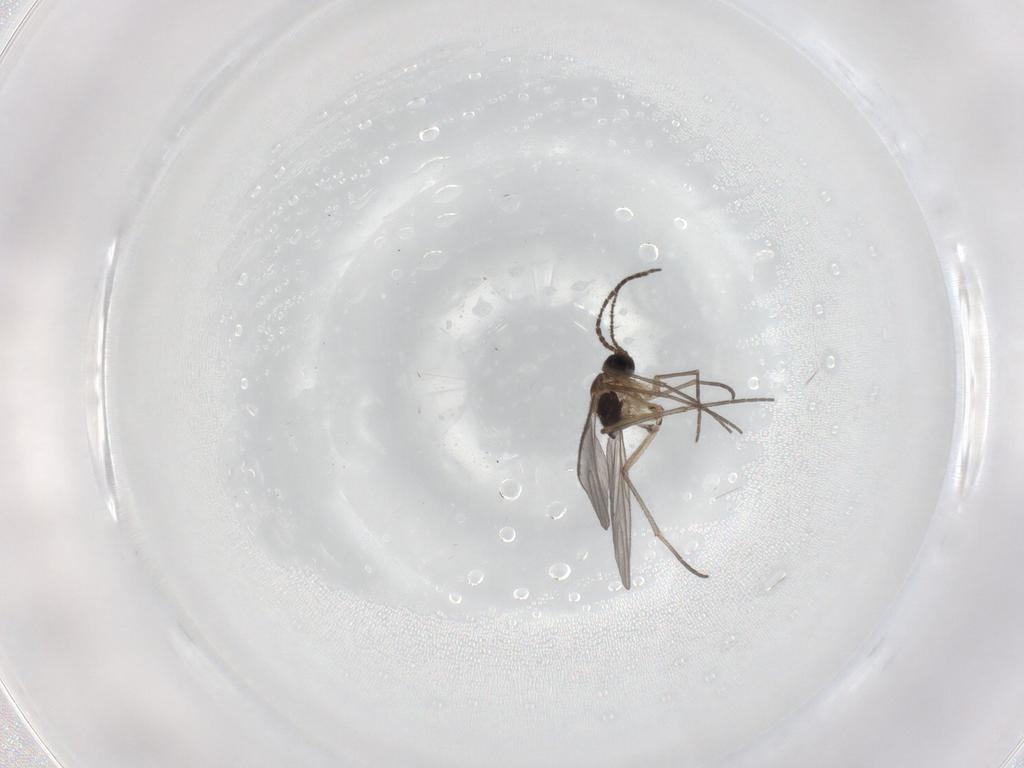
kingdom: Animalia
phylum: Arthropoda
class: Insecta
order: Diptera
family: Sciaridae
